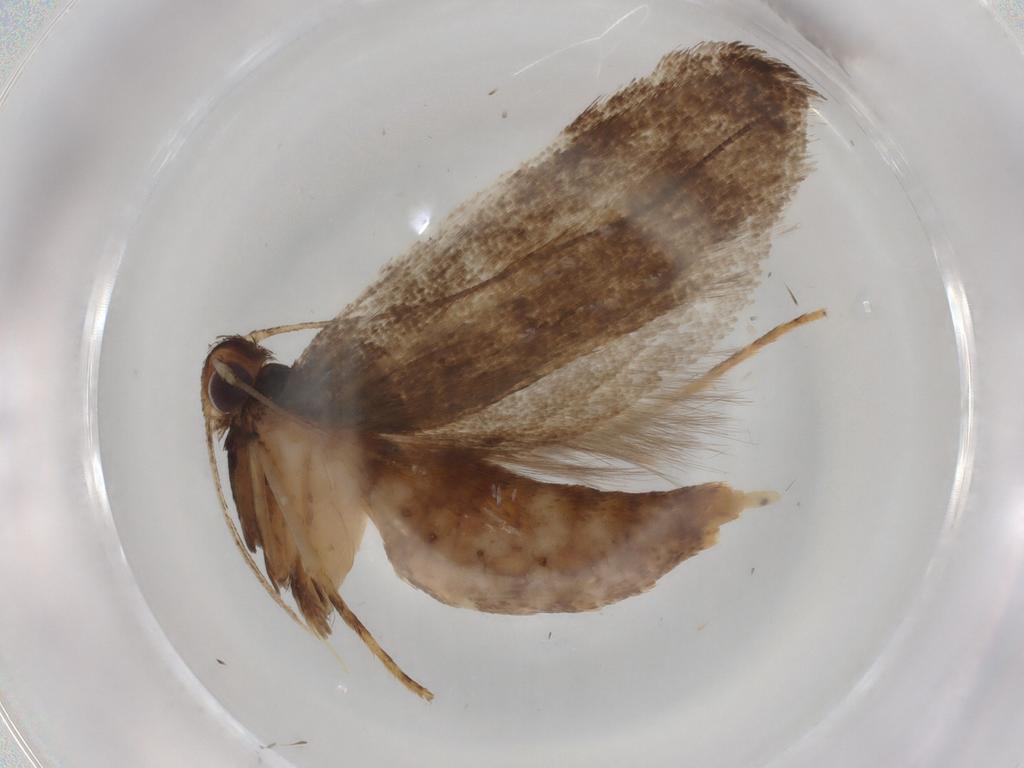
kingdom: Animalia
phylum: Arthropoda
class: Insecta
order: Lepidoptera
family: Lecithoceridae
